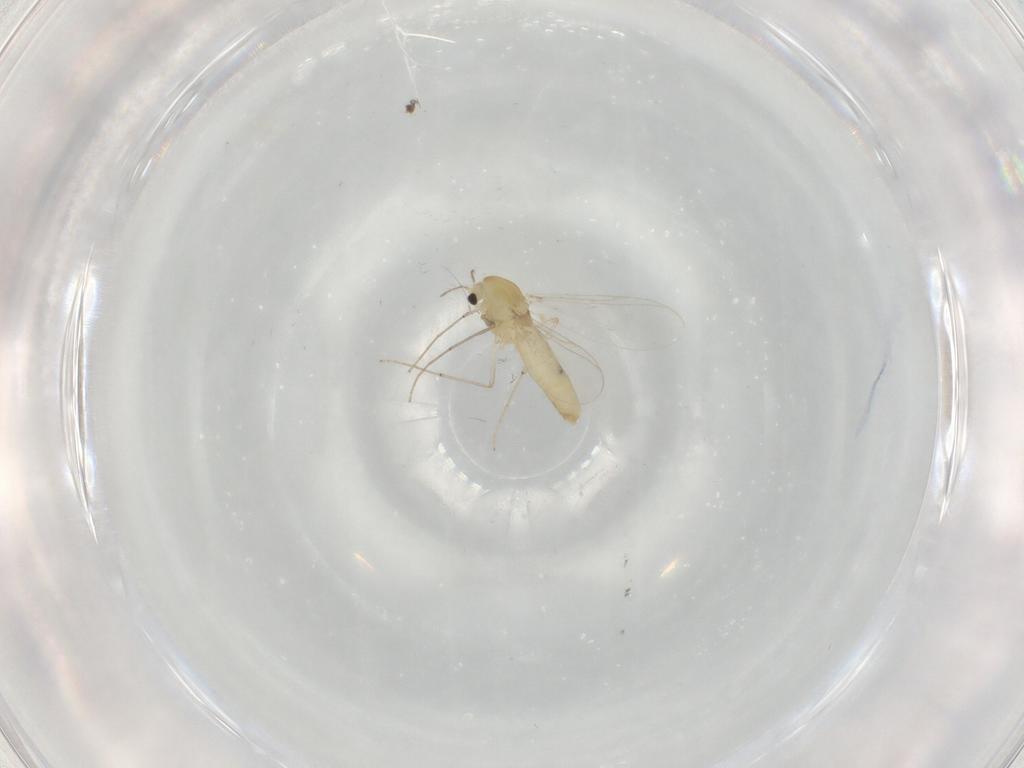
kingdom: Animalia
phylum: Arthropoda
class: Insecta
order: Diptera
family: Chironomidae
